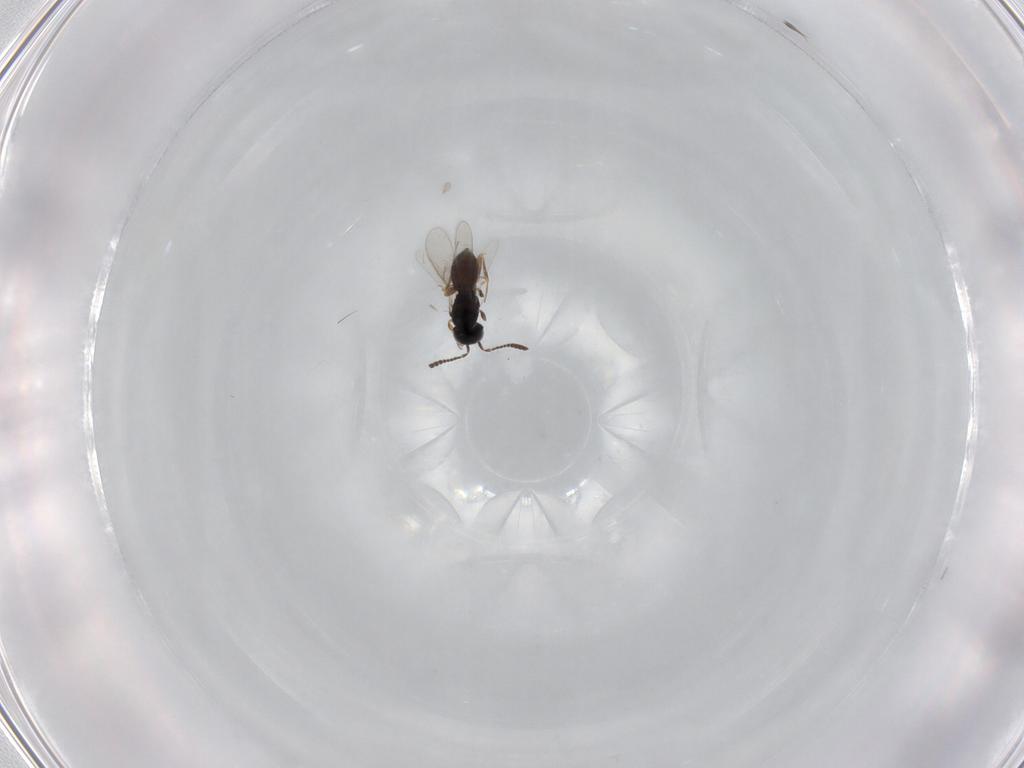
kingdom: Animalia
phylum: Arthropoda
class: Insecta
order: Hymenoptera
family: Scelionidae
